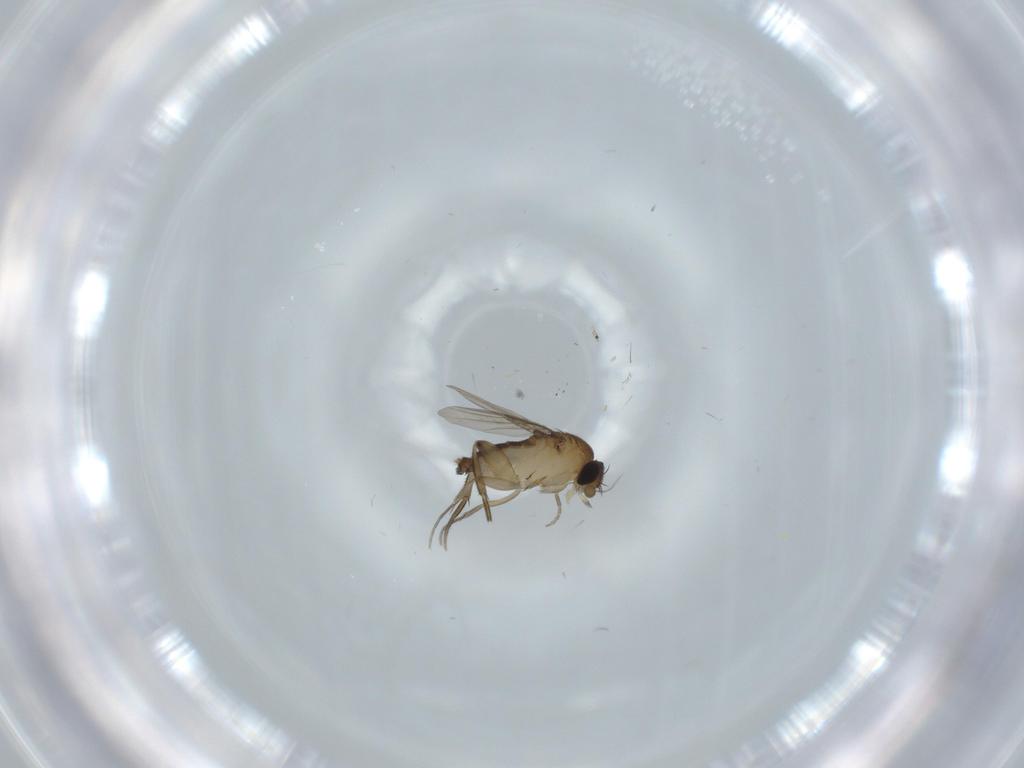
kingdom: Animalia
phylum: Arthropoda
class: Insecta
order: Diptera
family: Phoridae
